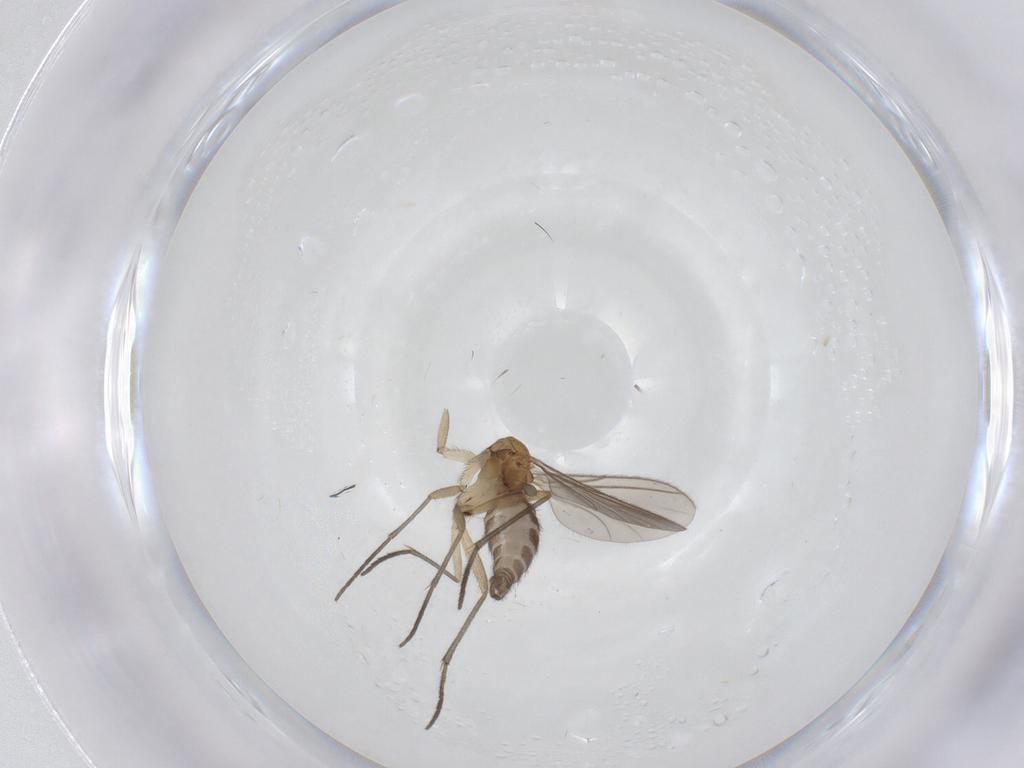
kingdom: Animalia
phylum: Arthropoda
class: Insecta
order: Diptera
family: Sciaridae
